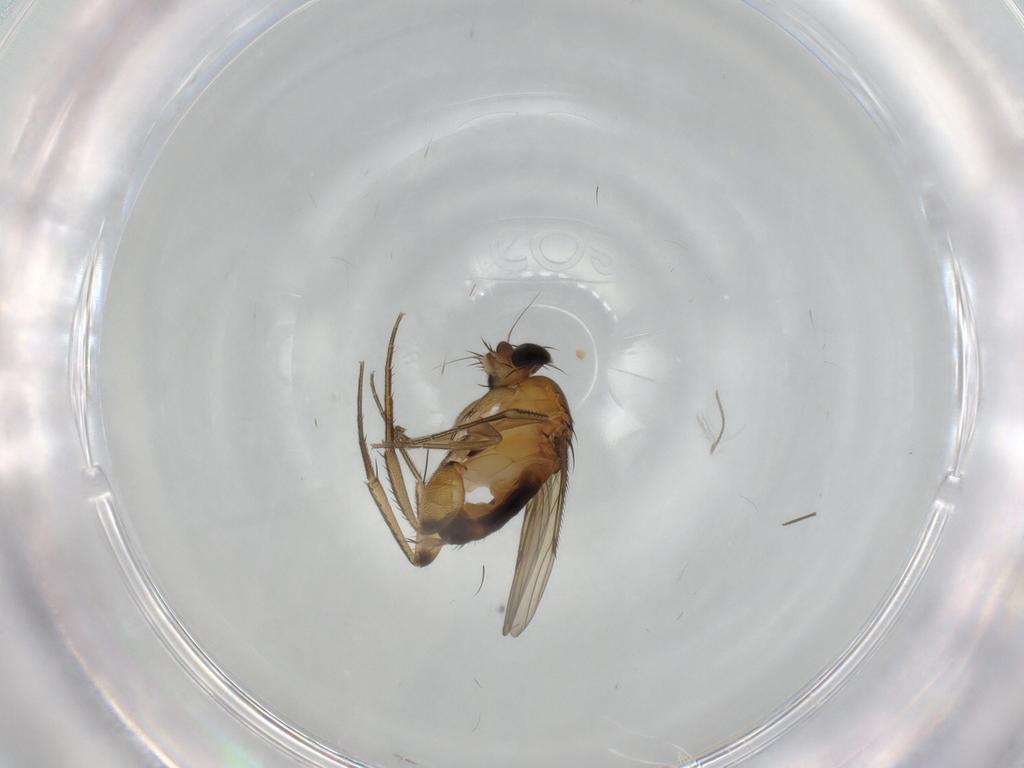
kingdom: Animalia
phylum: Arthropoda
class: Insecta
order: Diptera
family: Phoridae
